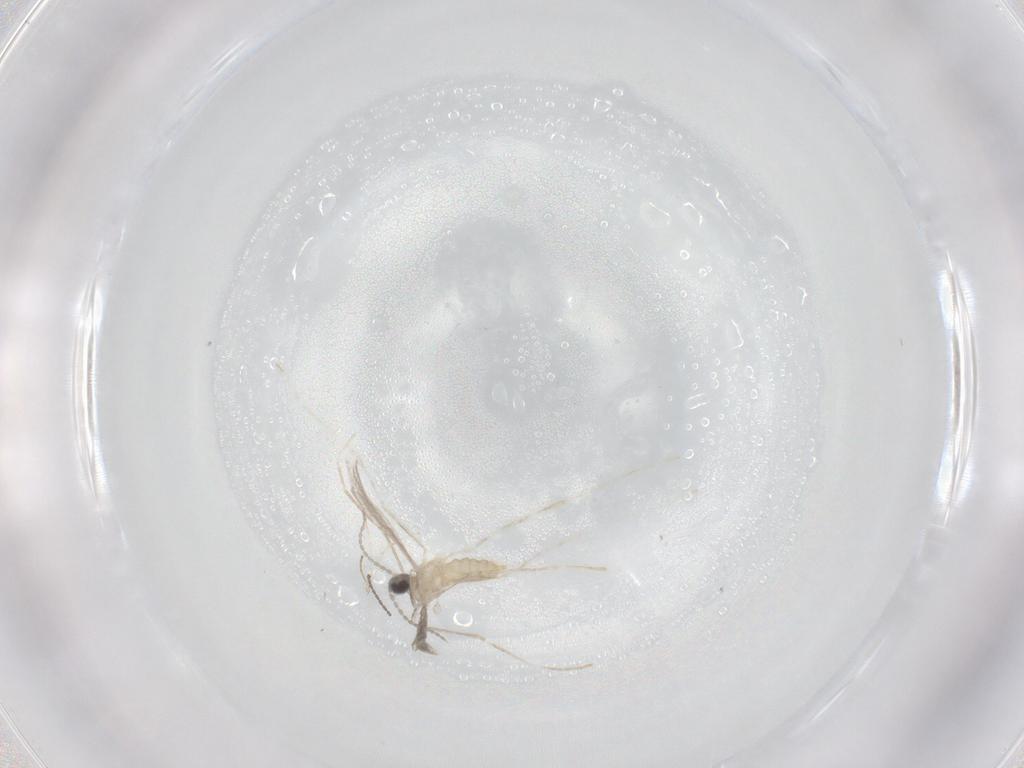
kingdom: Animalia
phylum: Arthropoda
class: Insecta
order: Diptera
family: Cecidomyiidae
